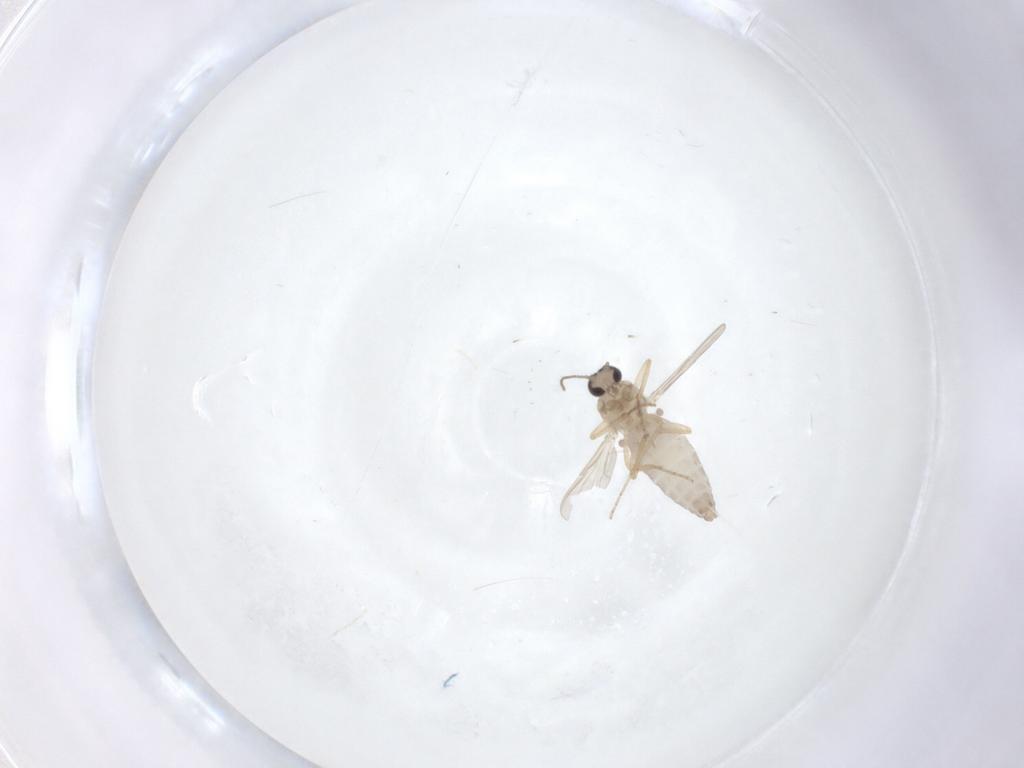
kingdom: Animalia
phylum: Arthropoda
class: Insecta
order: Diptera
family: Ceratopogonidae
